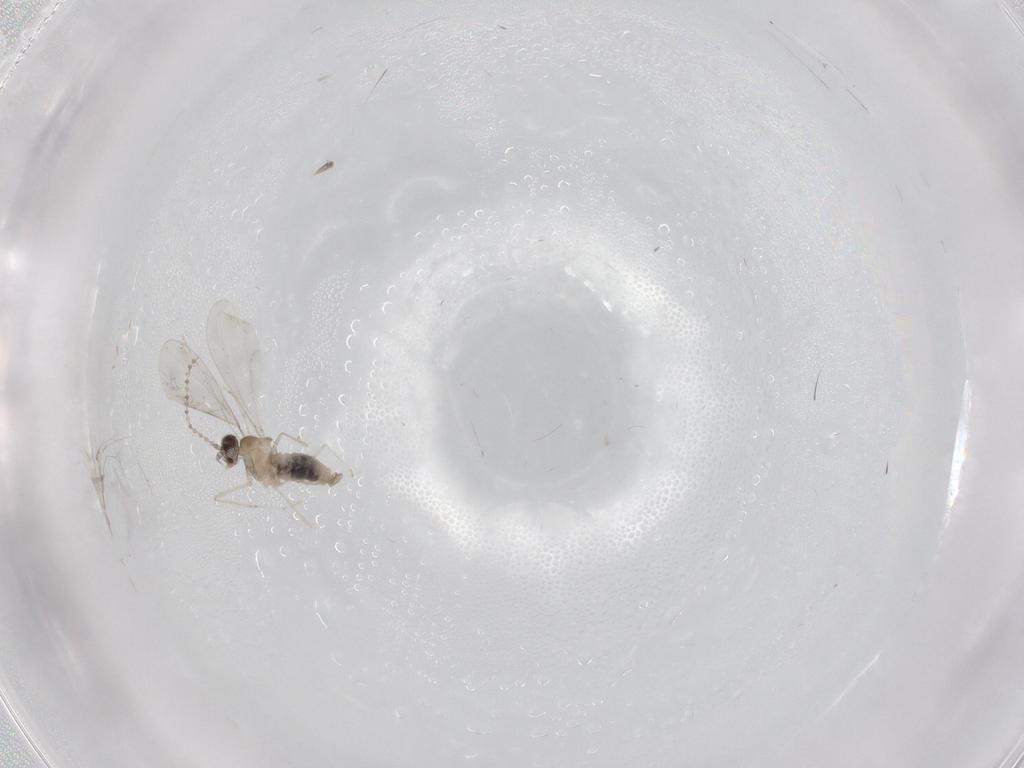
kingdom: Animalia
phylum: Arthropoda
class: Insecta
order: Diptera
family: Cecidomyiidae
